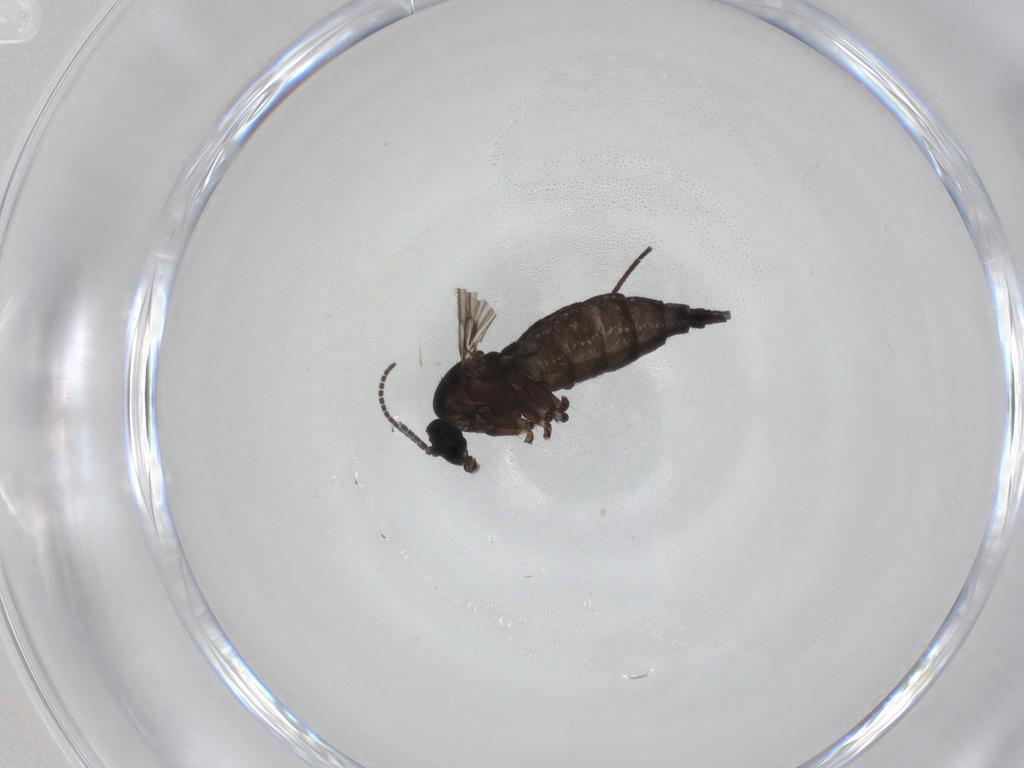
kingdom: Animalia
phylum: Arthropoda
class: Insecta
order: Diptera
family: Sciaridae
